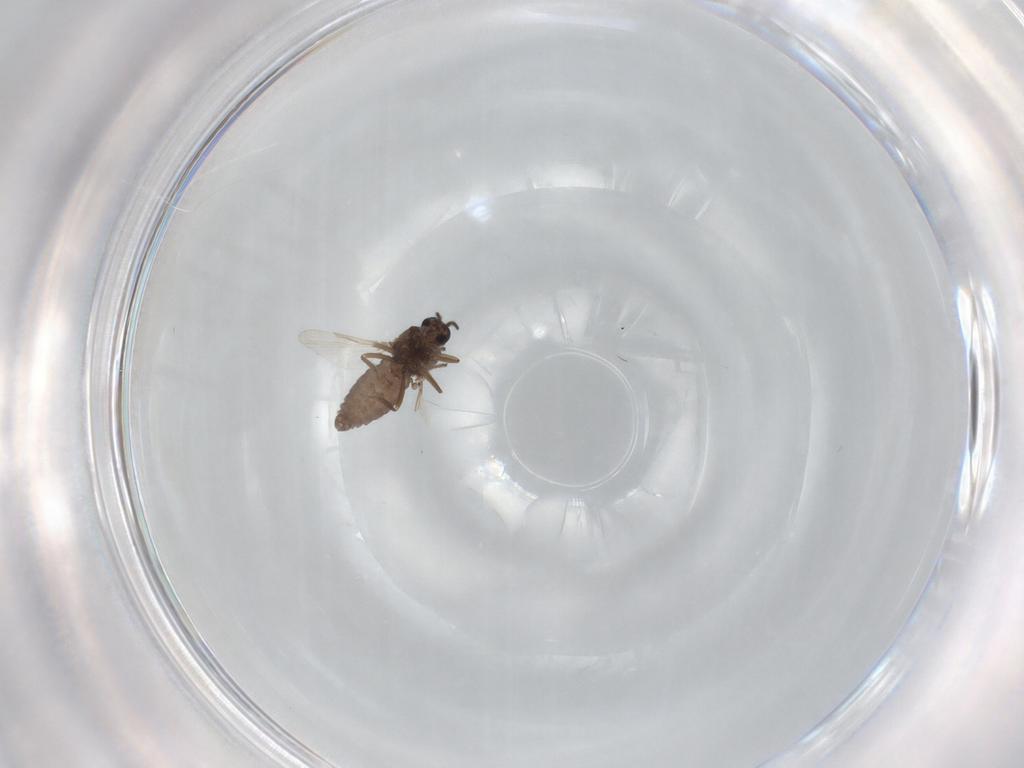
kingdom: Animalia
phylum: Arthropoda
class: Insecta
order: Diptera
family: Ceratopogonidae
